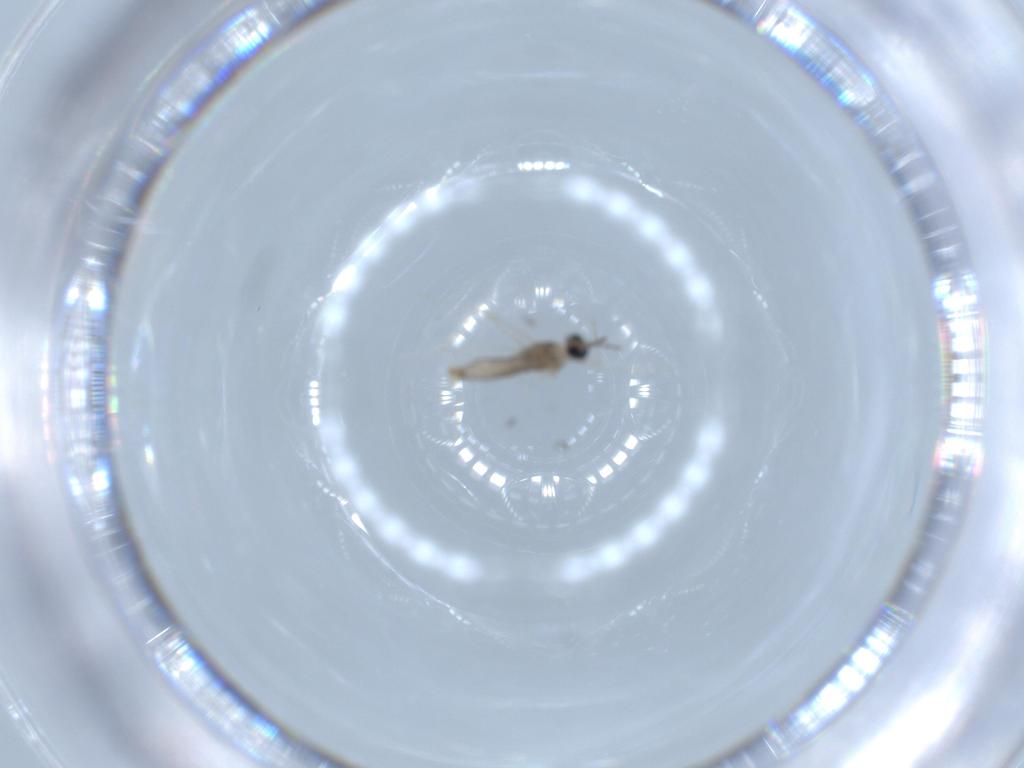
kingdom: Animalia
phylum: Arthropoda
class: Insecta
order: Diptera
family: Cecidomyiidae
